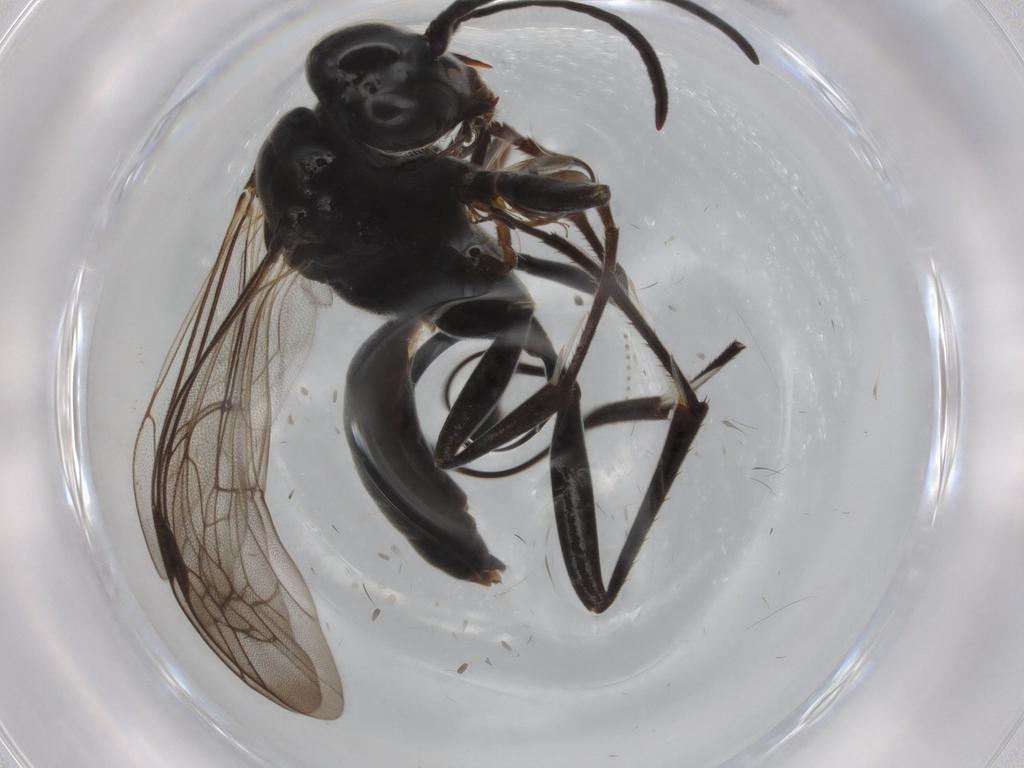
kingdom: Animalia
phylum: Arthropoda
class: Insecta
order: Hymenoptera
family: Pompilidae
